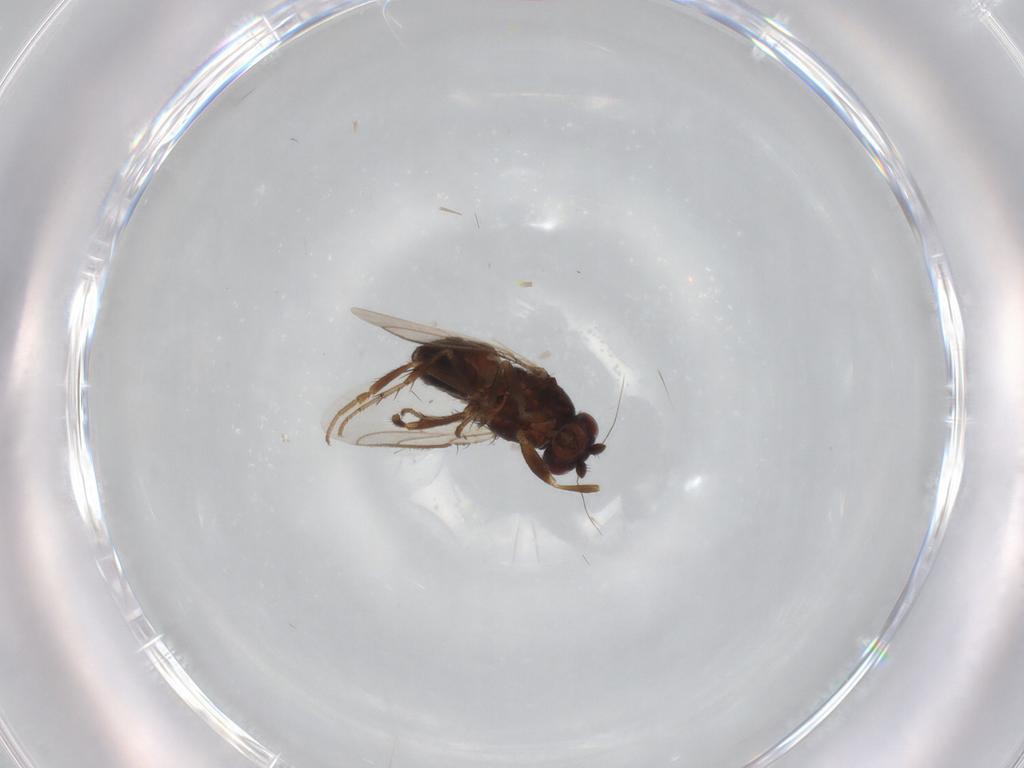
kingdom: Animalia
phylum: Arthropoda
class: Insecta
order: Diptera
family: Sphaeroceridae
